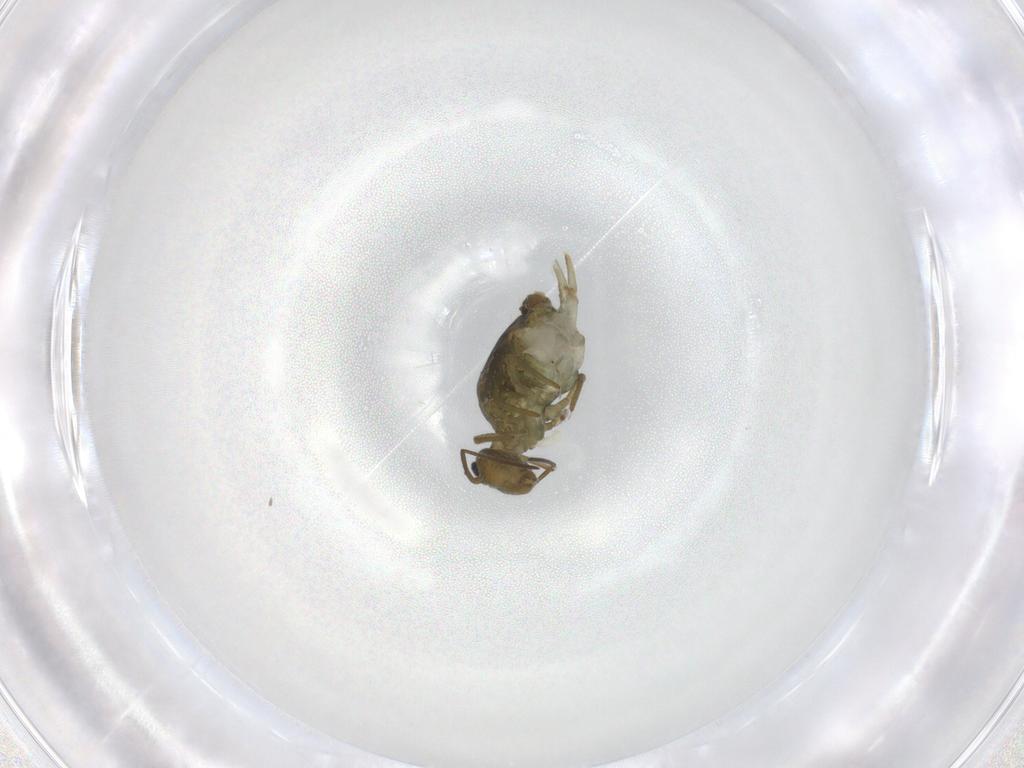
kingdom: Animalia
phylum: Arthropoda
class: Collembola
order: Symphypleona
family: Sminthuridae
